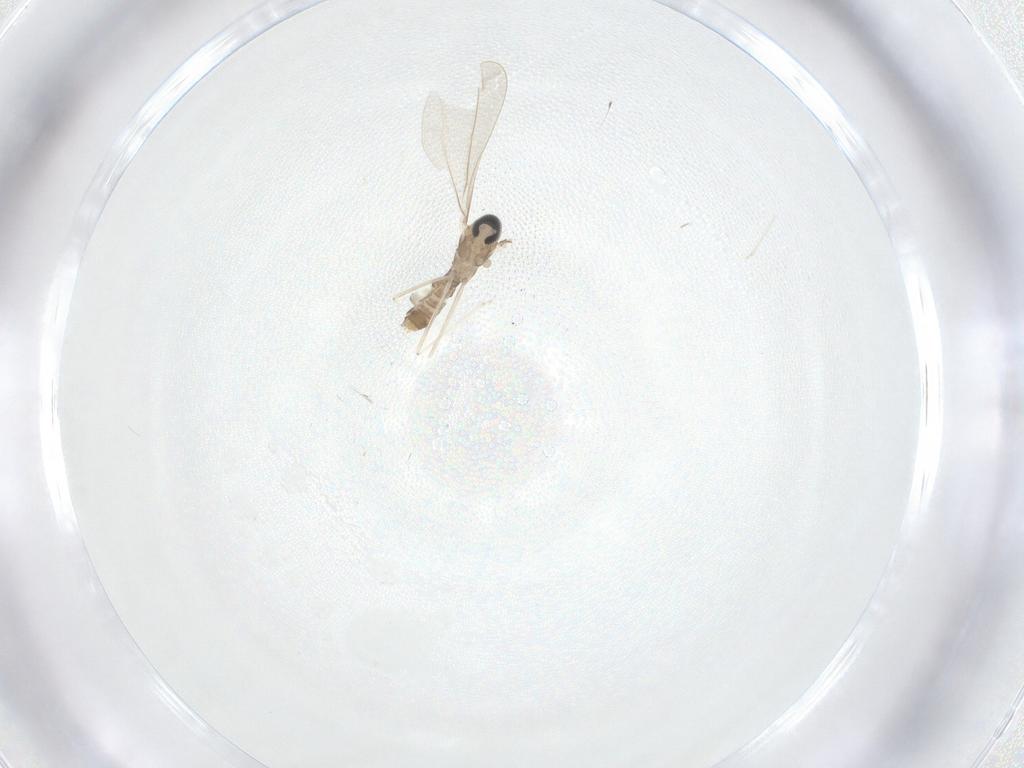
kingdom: Animalia
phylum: Arthropoda
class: Insecta
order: Diptera
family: Cecidomyiidae
